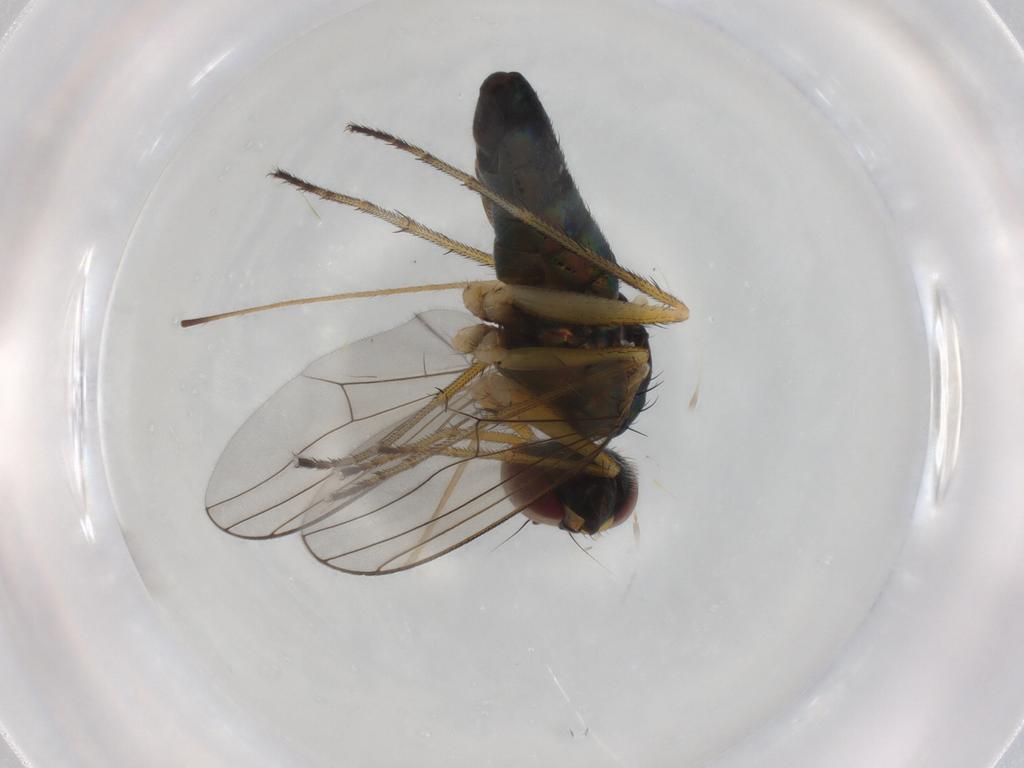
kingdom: Animalia
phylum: Arthropoda
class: Insecta
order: Diptera
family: Dolichopodidae
